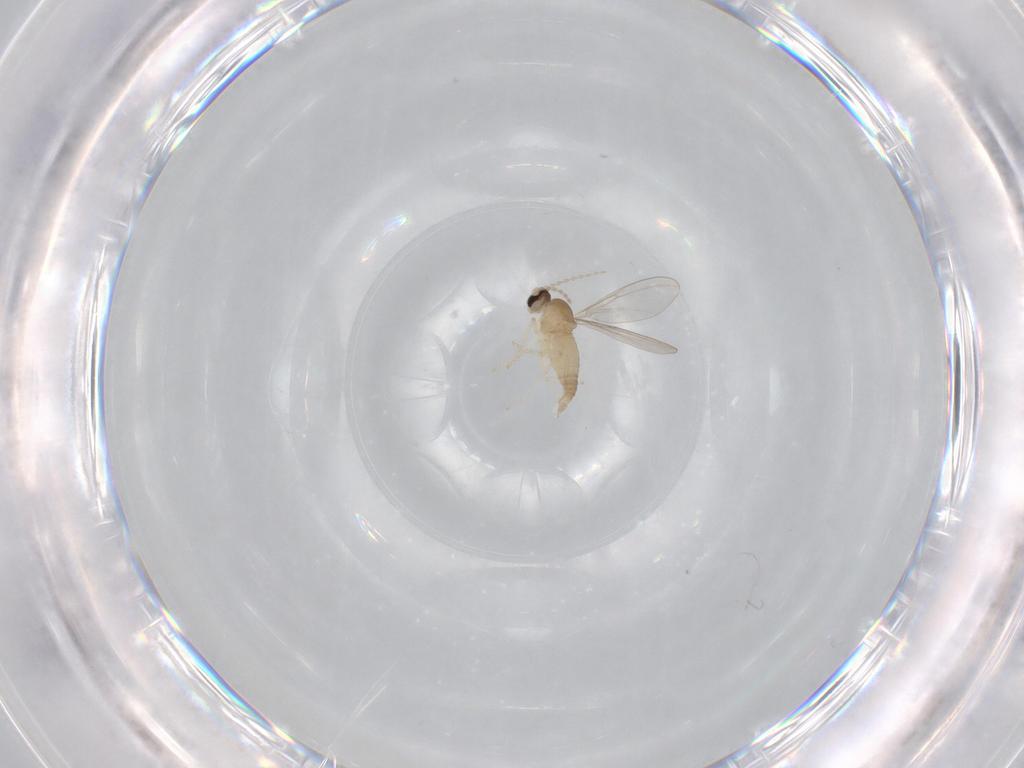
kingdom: Animalia
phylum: Arthropoda
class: Insecta
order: Diptera
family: Cecidomyiidae
